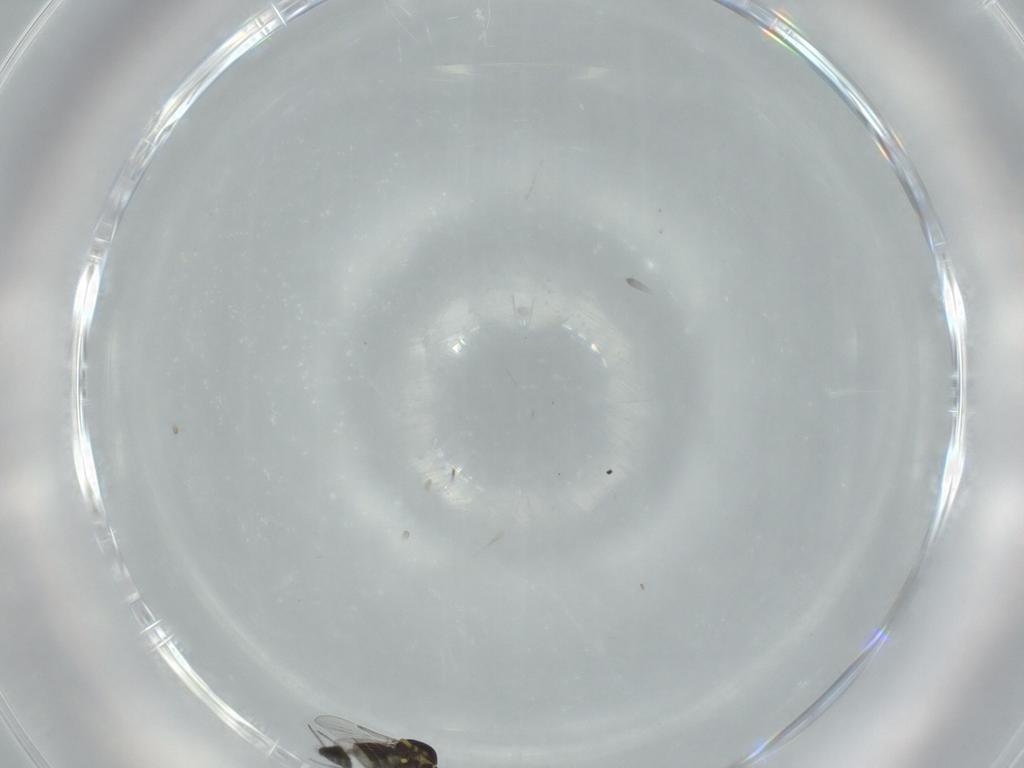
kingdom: Animalia
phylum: Arthropoda
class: Insecta
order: Diptera
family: Ceratopogonidae
